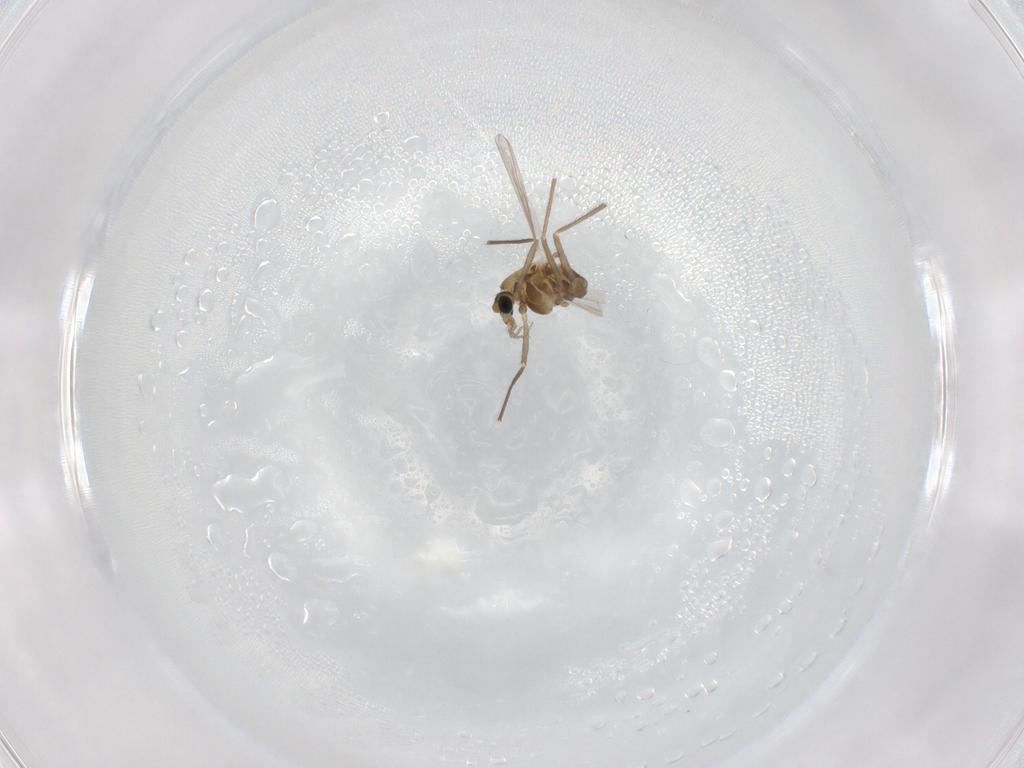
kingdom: Animalia
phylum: Arthropoda
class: Insecta
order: Diptera
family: Chironomidae
